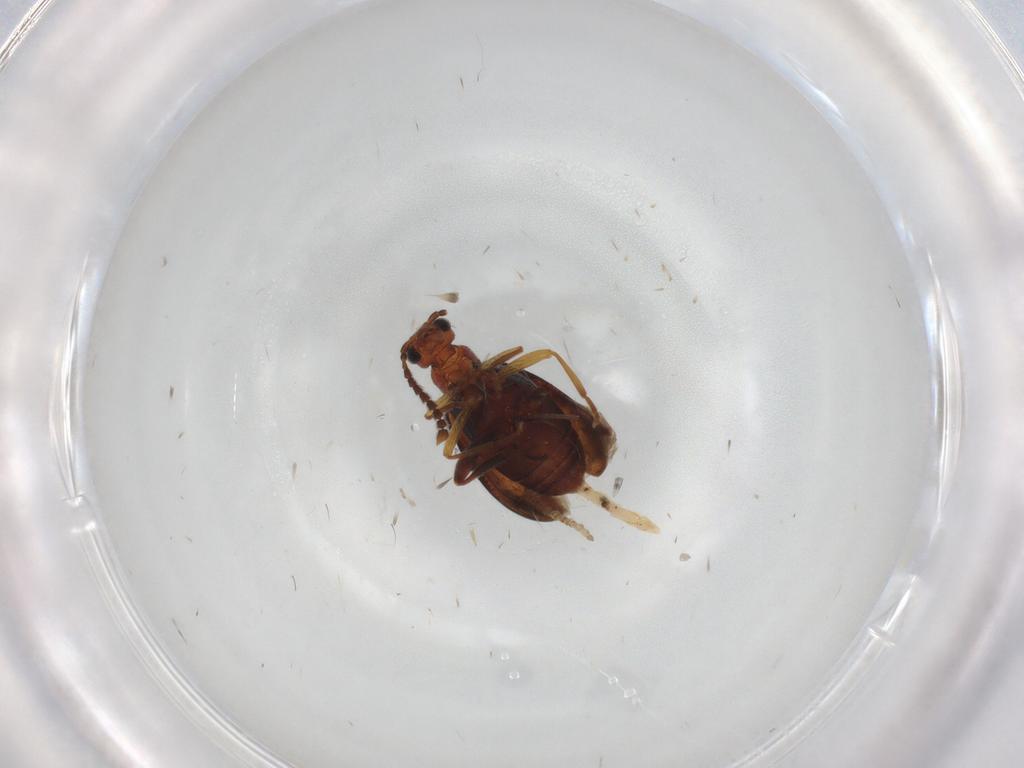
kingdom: Animalia
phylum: Arthropoda
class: Insecta
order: Coleoptera
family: Aderidae
